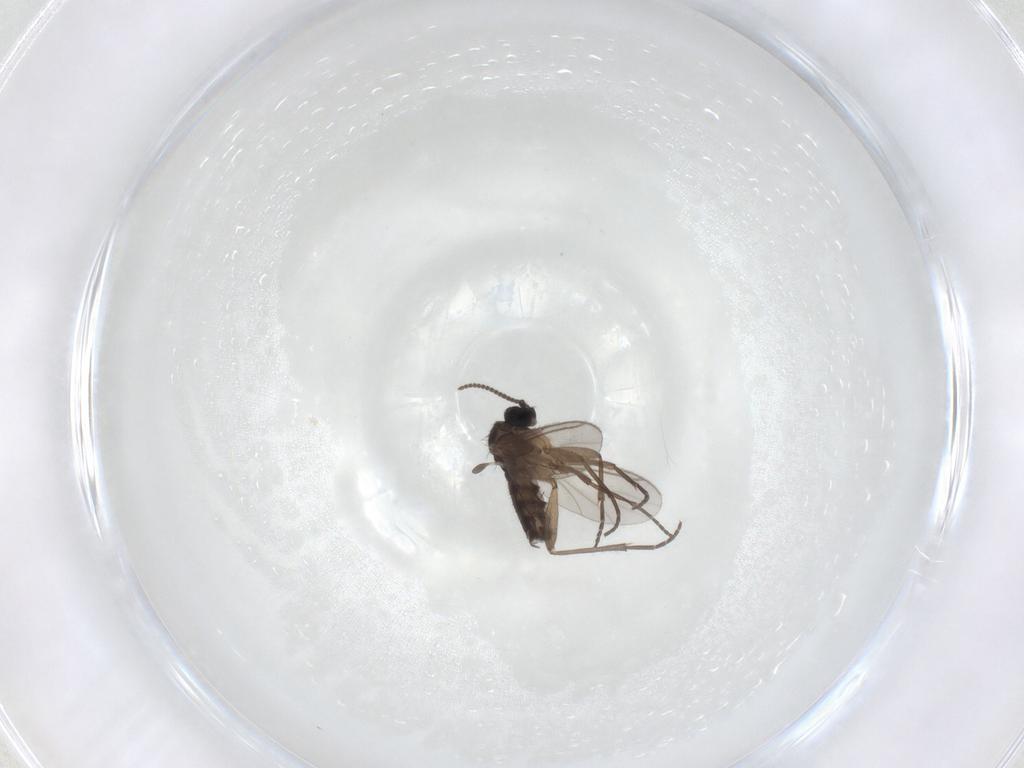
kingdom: Animalia
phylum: Arthropoda
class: Insecta
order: Diptera
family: Sciaridae
